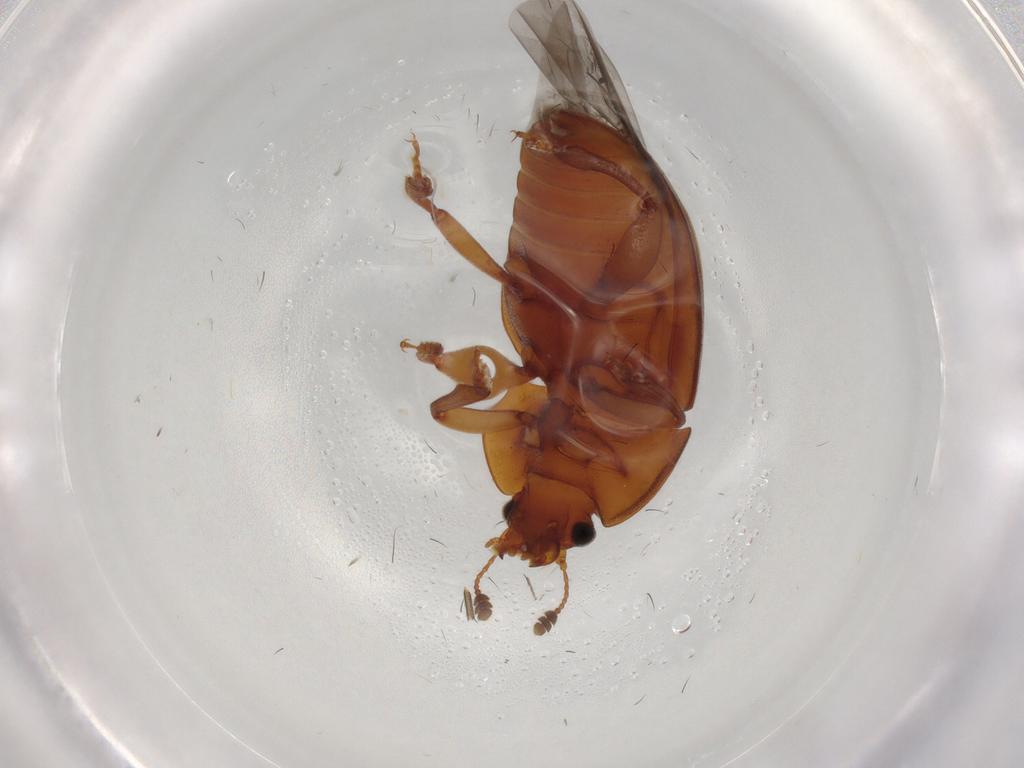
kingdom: Animalia
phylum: Arthropoda
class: Insecta
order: Coleoptera
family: Nitidulidae
